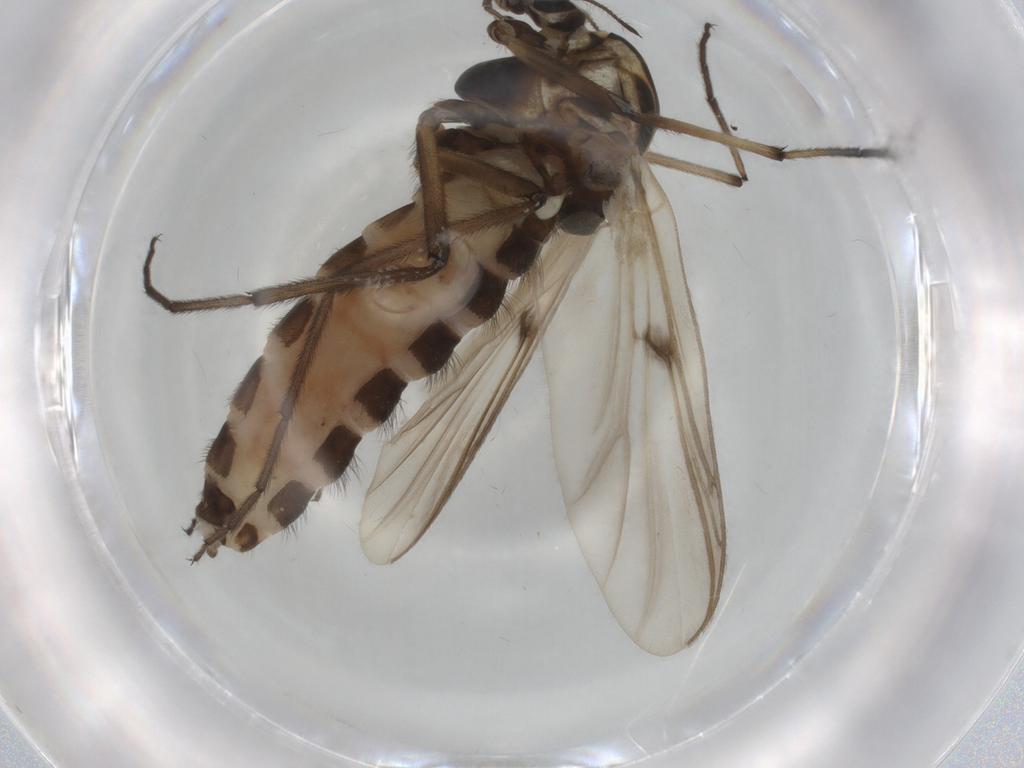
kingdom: Animalia
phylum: Arthropoda
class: Insecta
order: Diptera
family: Chironomidae
